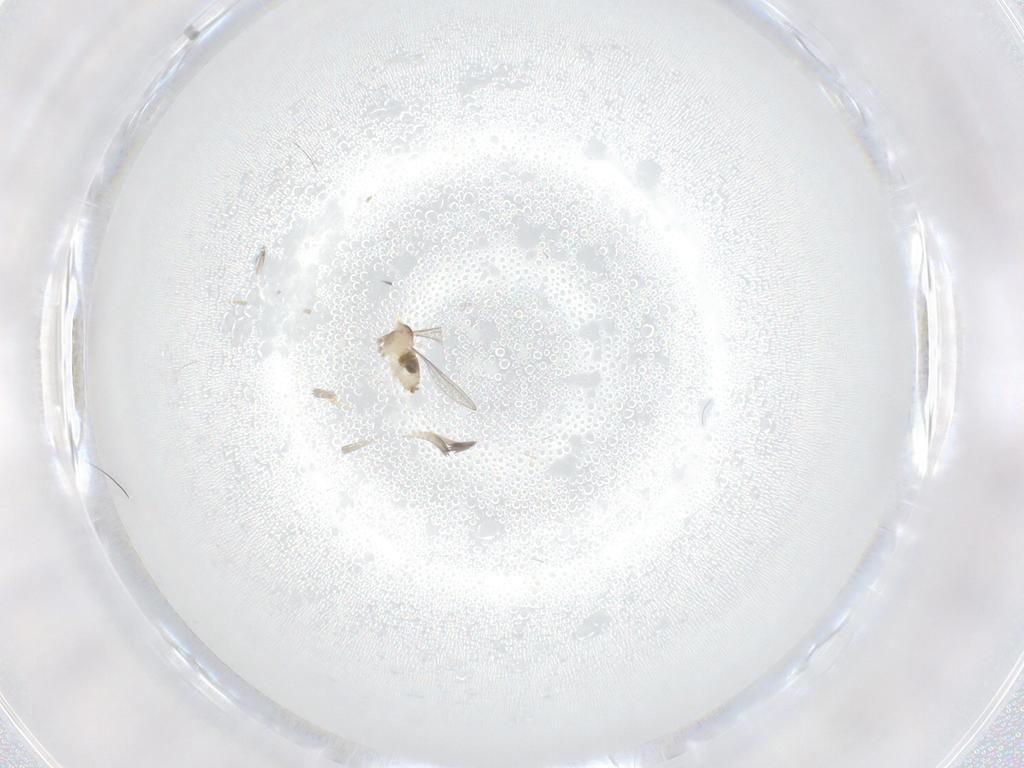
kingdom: Animalia
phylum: Arthropoda
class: Insecta
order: Diptera
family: Cecidomyiidae
